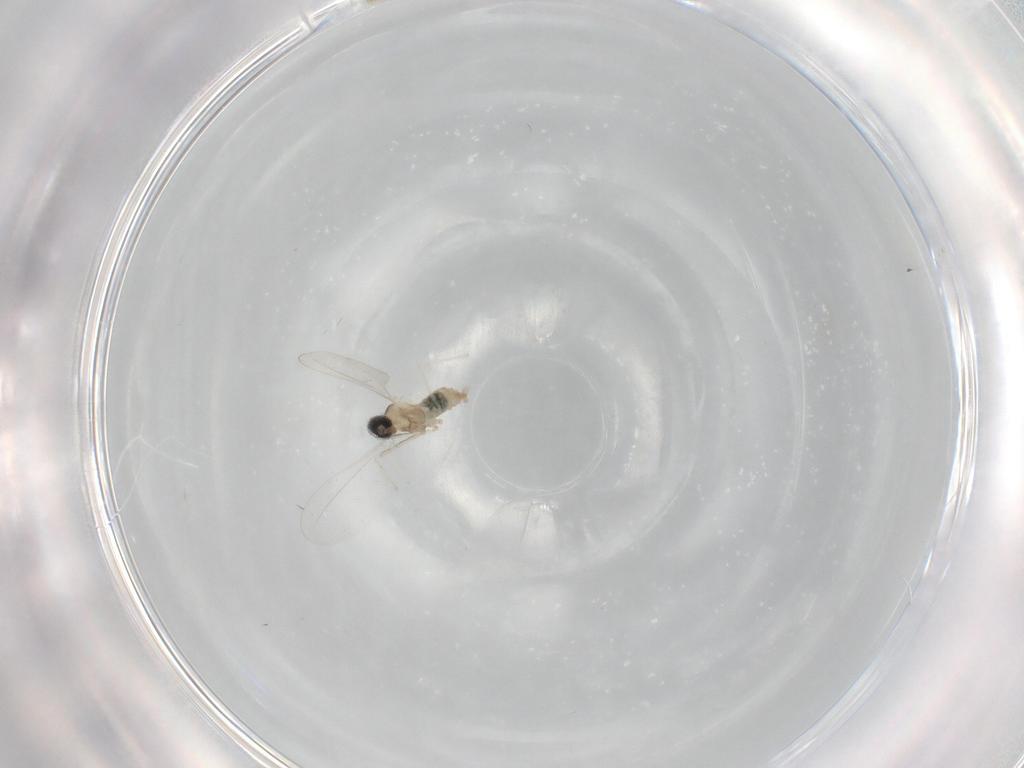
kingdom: Animalia
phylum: Arthropoda
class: Insecta
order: Diptera
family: Cecidomyiidae
